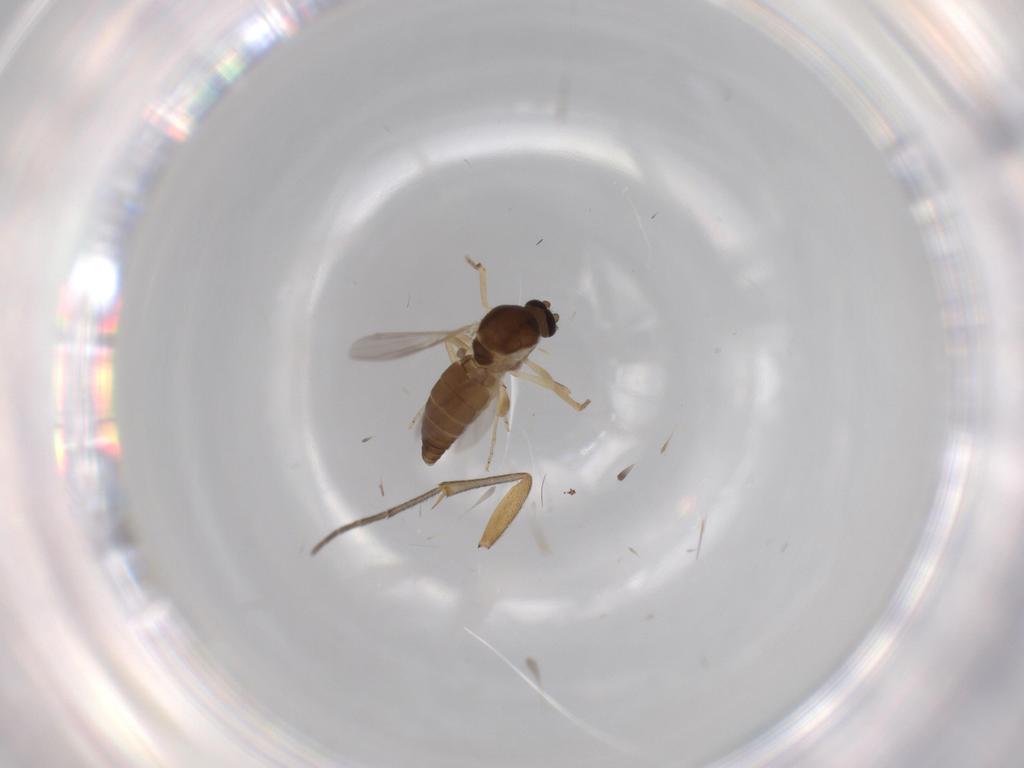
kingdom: Animalia
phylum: Arthropoda
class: Insecta
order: Diptera
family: Ceratopogonidae
